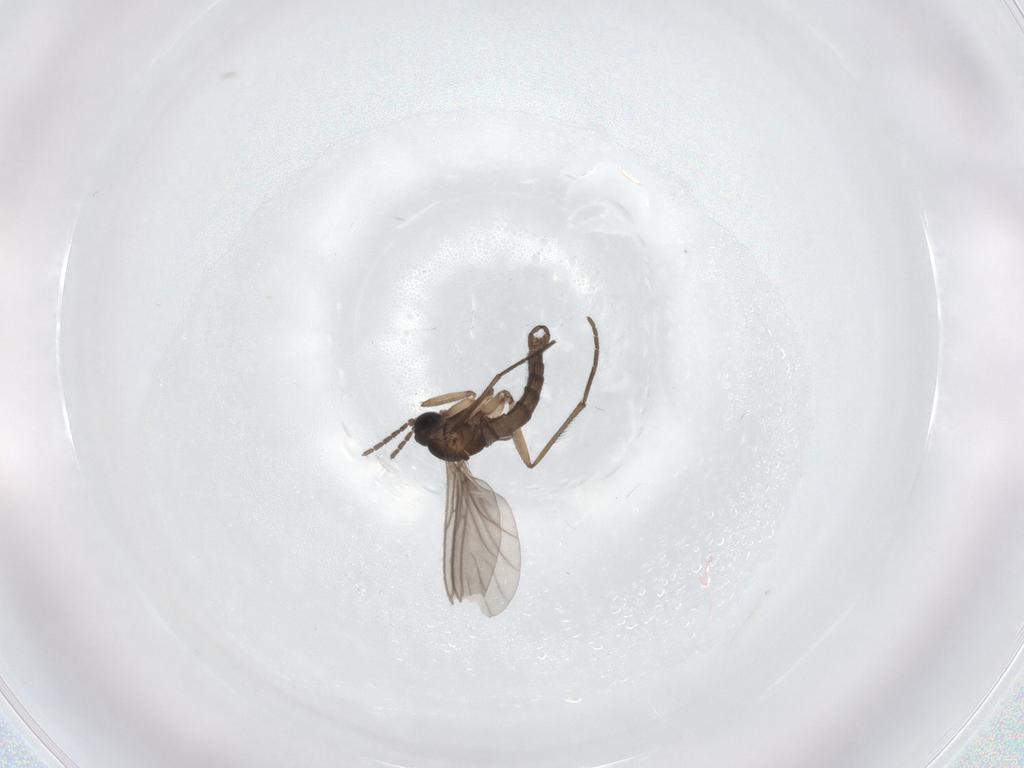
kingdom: Animalia
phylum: Arthropoda
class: Insecta
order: Diptera
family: Sciaridae
